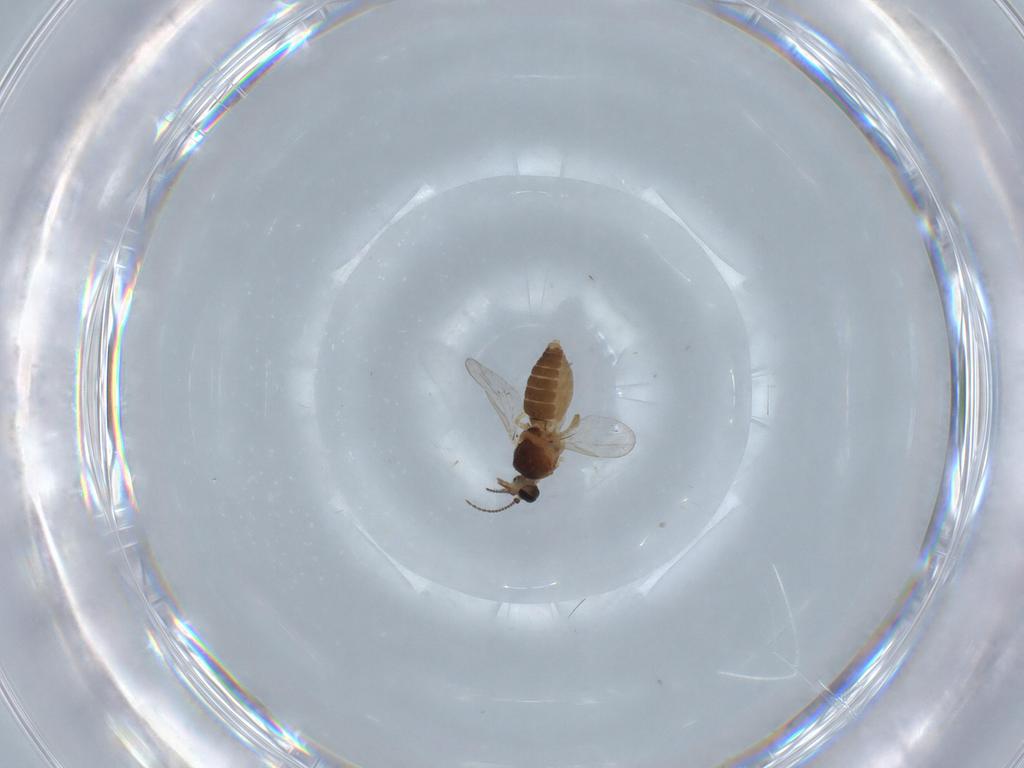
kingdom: Animalia
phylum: Arthropoda
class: Insecta
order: Diptera
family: Ceratopogonidae
